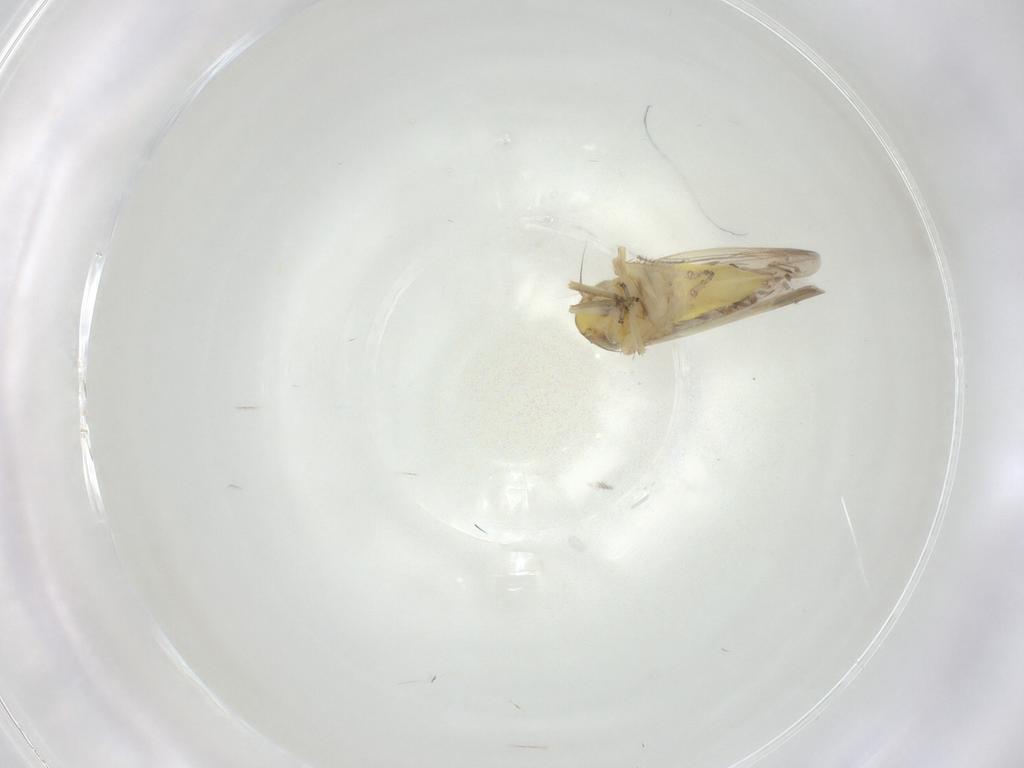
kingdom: Animalia
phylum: Arthropoda
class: Insecta
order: Hemiptera
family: Cicadellidae
